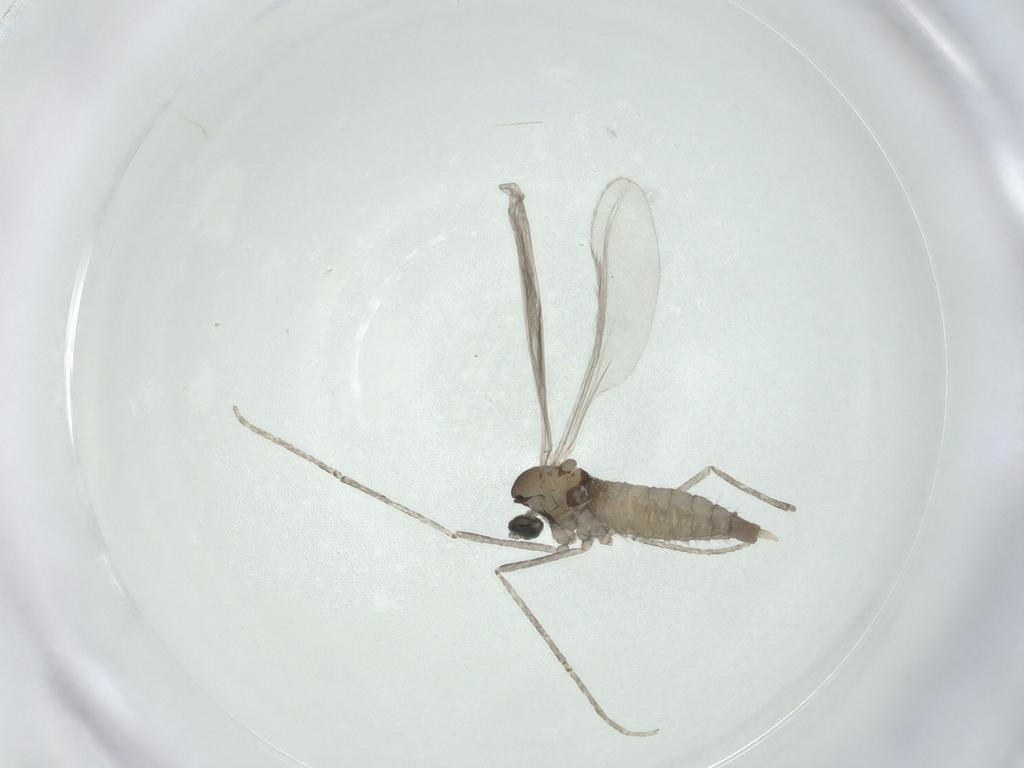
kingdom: Animalia
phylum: Arthropoda
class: Insecta
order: Diptera
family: Cecidomyiidae
